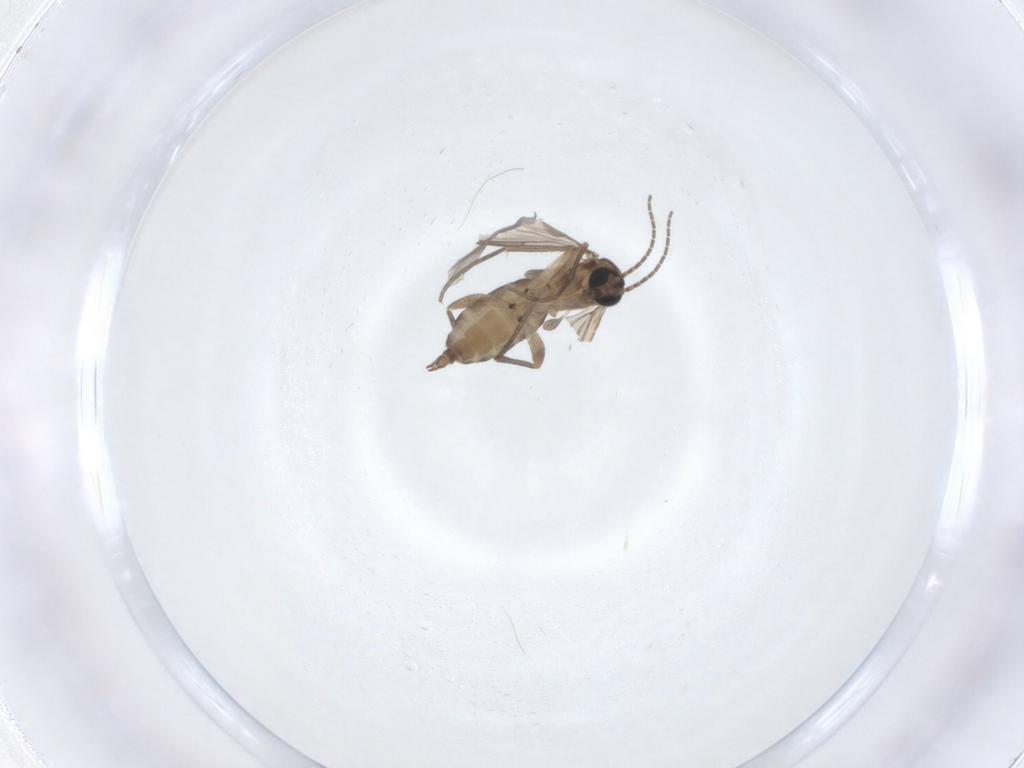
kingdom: Animalia
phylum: Arthropoda
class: Insecta
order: Diptera
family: Sciaridae
